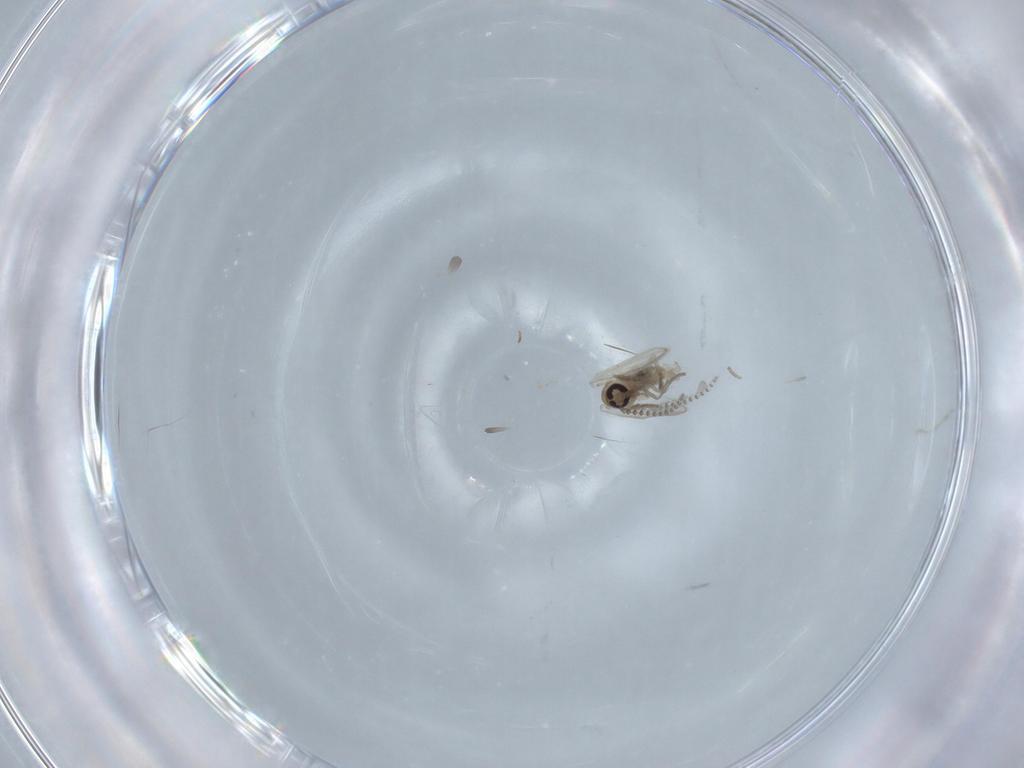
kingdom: Animalia
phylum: Arthropoda
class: Insecta
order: Diptera
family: Psychodidae
